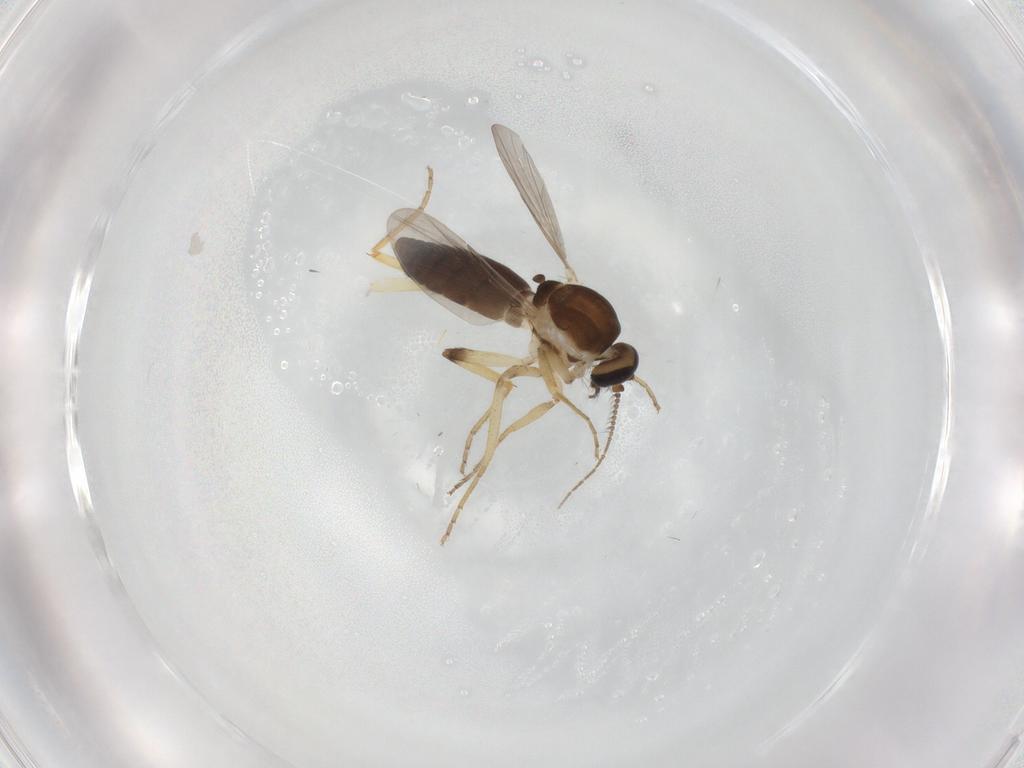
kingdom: Animalia
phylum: Arthropoda
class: Insecta
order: Diptera
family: Ceratopogonidae
